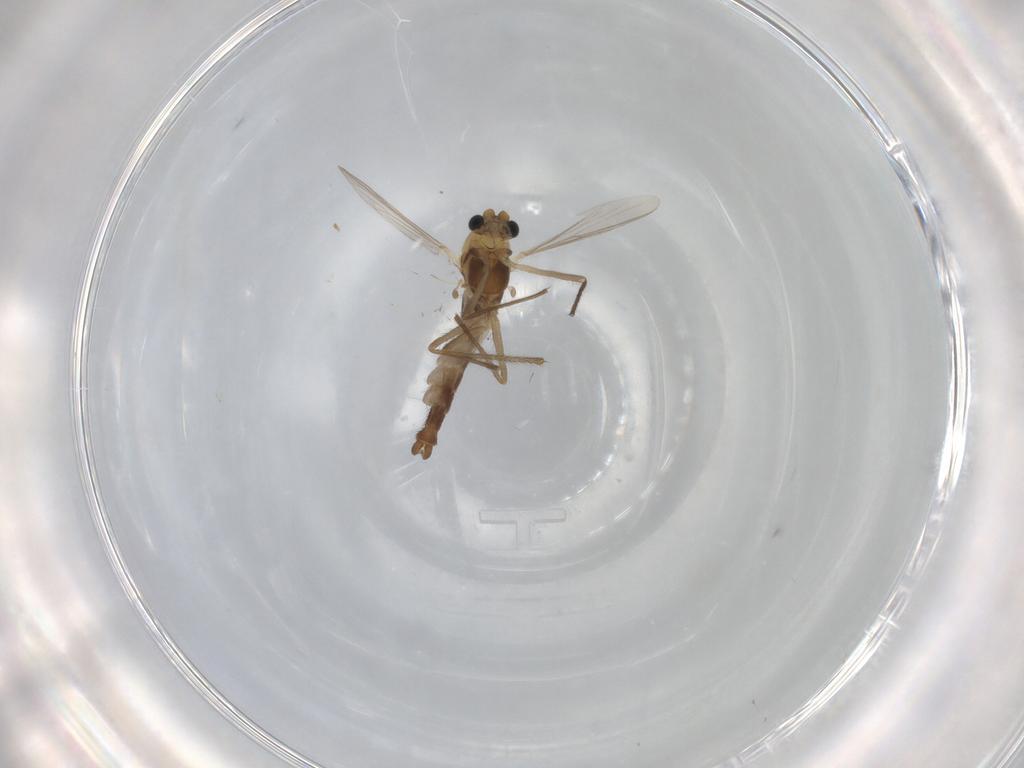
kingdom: Animalia
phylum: Arthropoda
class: Insecta
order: Diptera
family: Chironomidae
